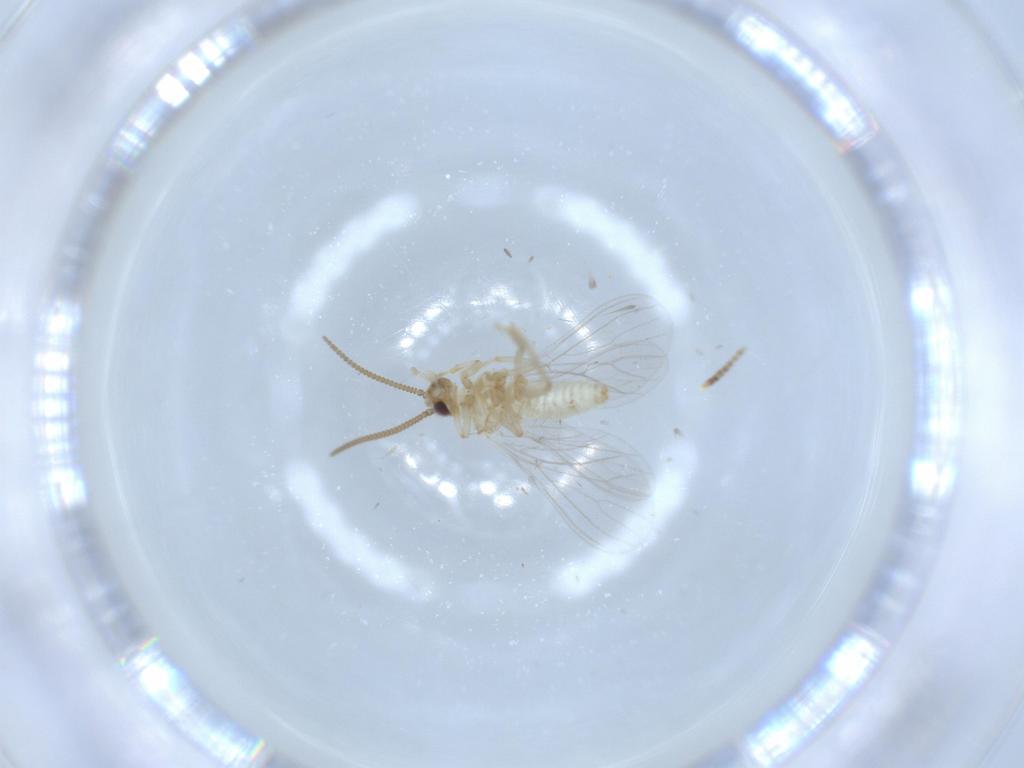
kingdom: Animalia
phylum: Arthropoda
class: Insecta
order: Neuroptera
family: Coniopterygidae
